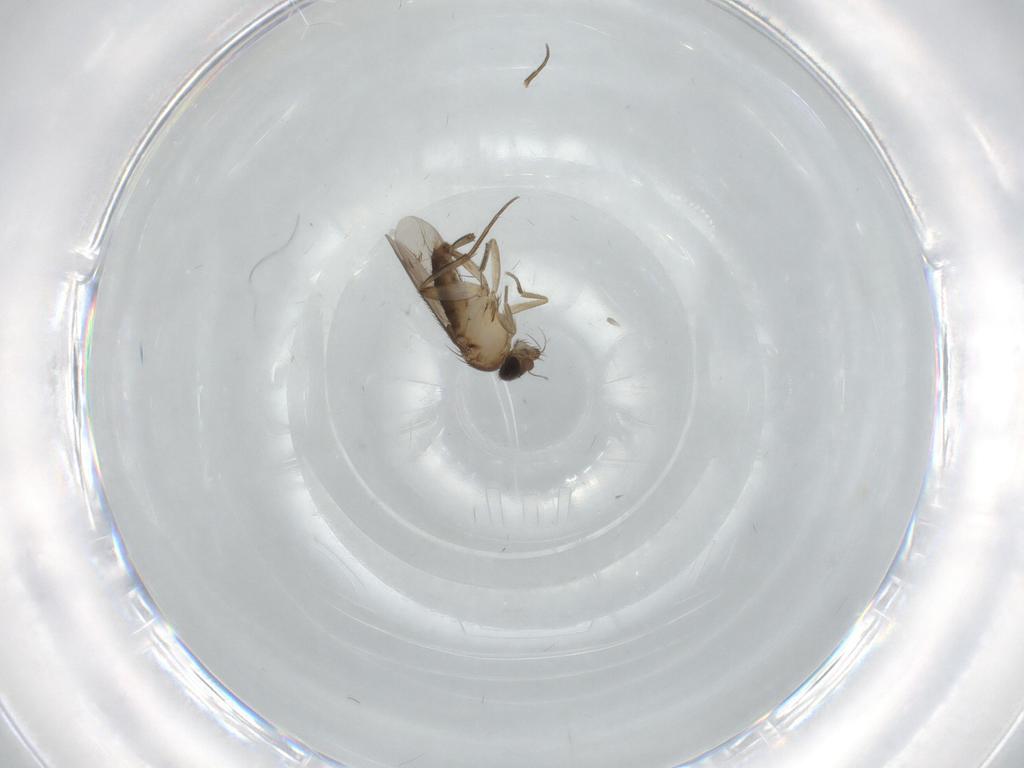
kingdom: Animalia
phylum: Arthropoda
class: Insecta
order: Diptera
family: Phoridae
